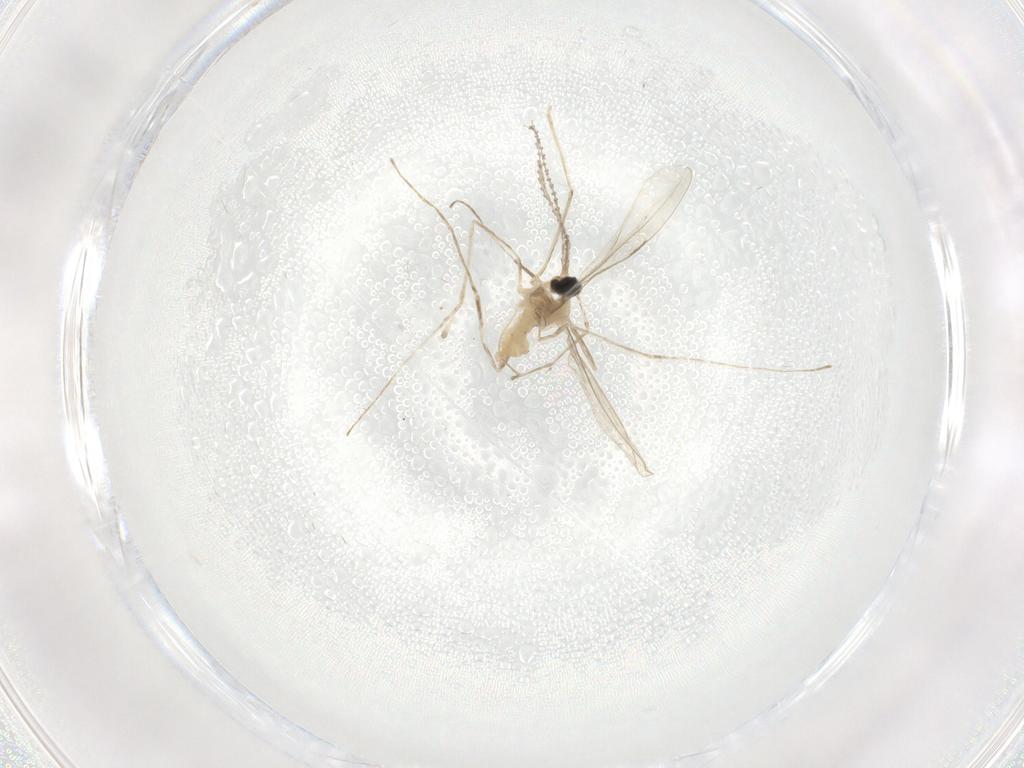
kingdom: Animalia
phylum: Arthropoda
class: Insecta
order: Diptera
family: Cecidomyiidae
